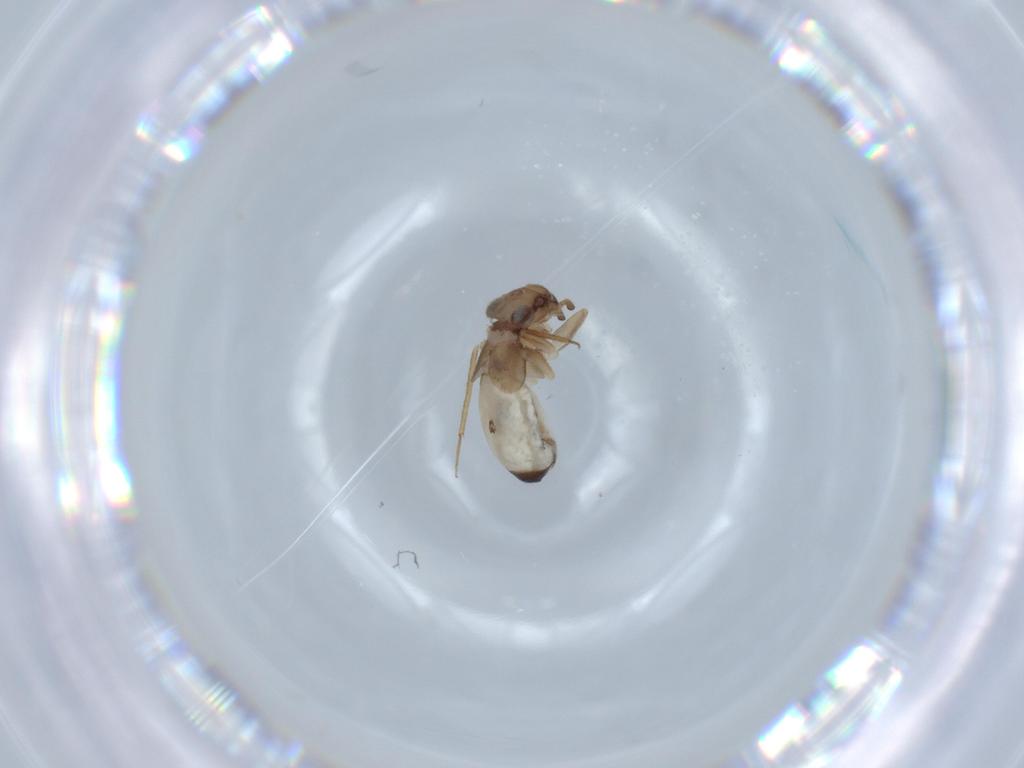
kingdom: Animalia
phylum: Arthropoda
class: Insecta
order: Psocodea
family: Lepidopsocidae
